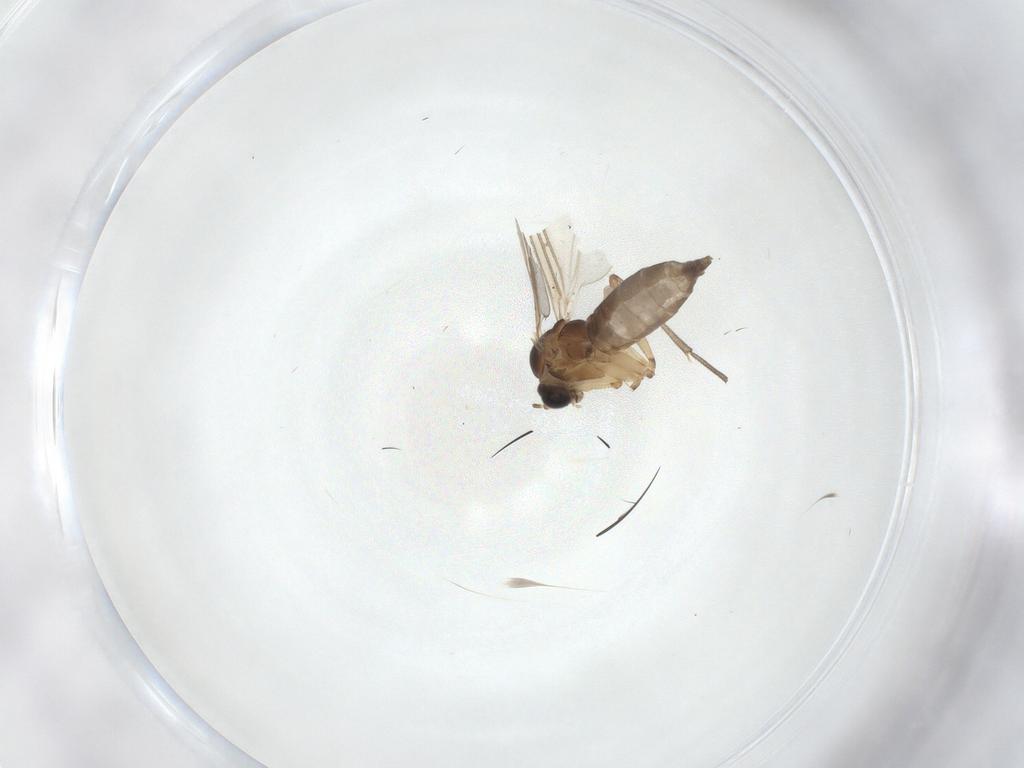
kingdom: Animalia
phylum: Arthropoda
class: Insecta
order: Diptera
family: Sciaridae
